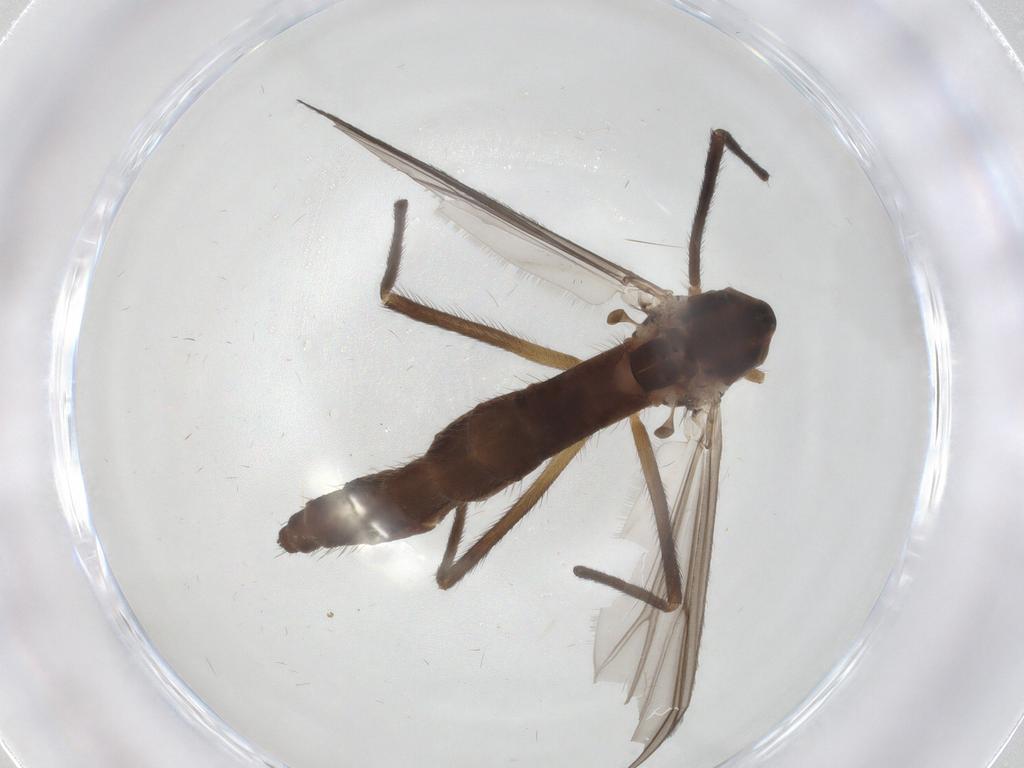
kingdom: Animalia
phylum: Arthropoda
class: Insecta
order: Diptera
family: Chironomidae
